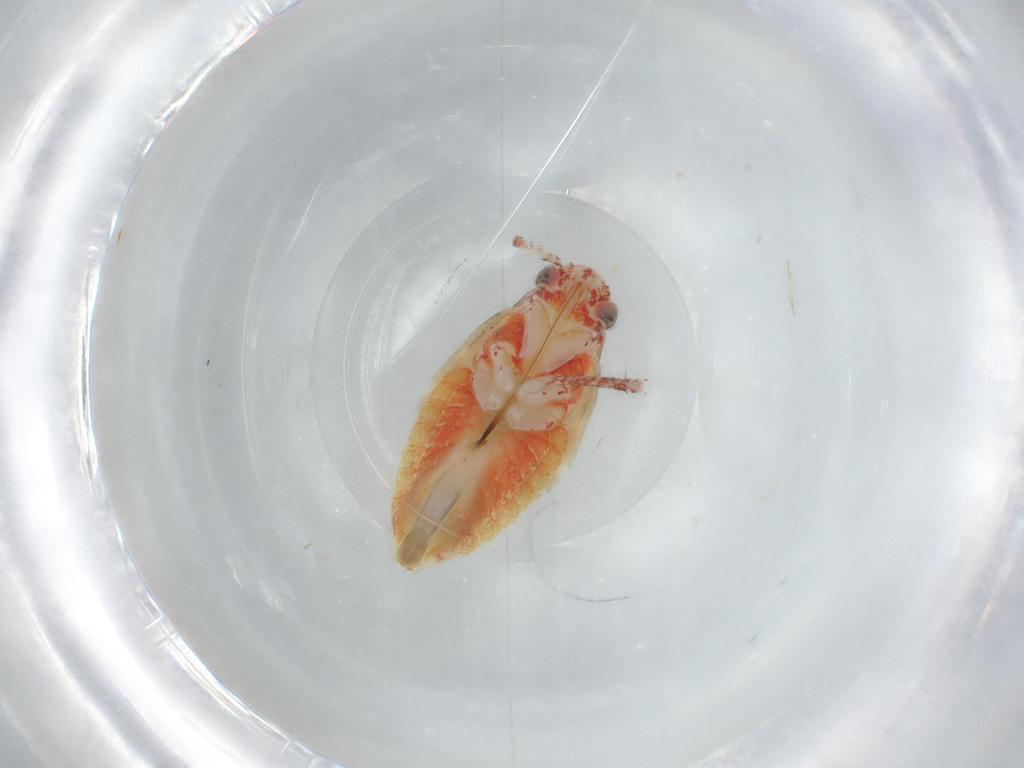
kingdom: Animalia
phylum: Arthropoda
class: Insecta
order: Hemiptera
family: Miridae
